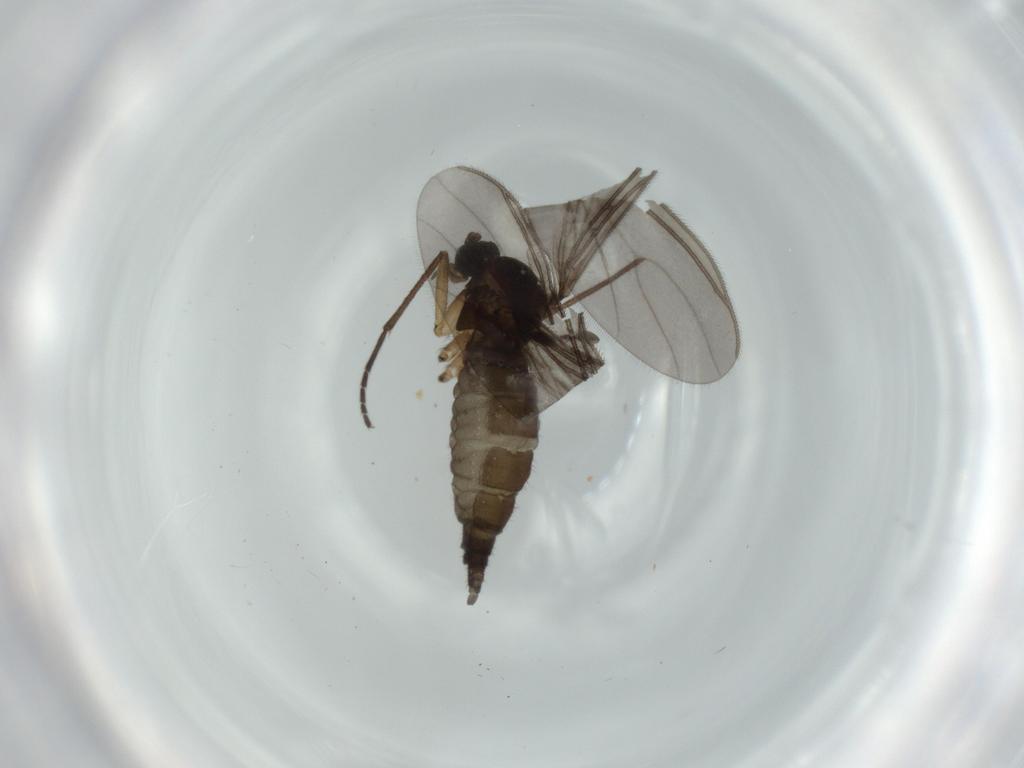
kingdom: Animalia
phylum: Arthropoda
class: Insecta
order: Diptera
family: Sciaridae
